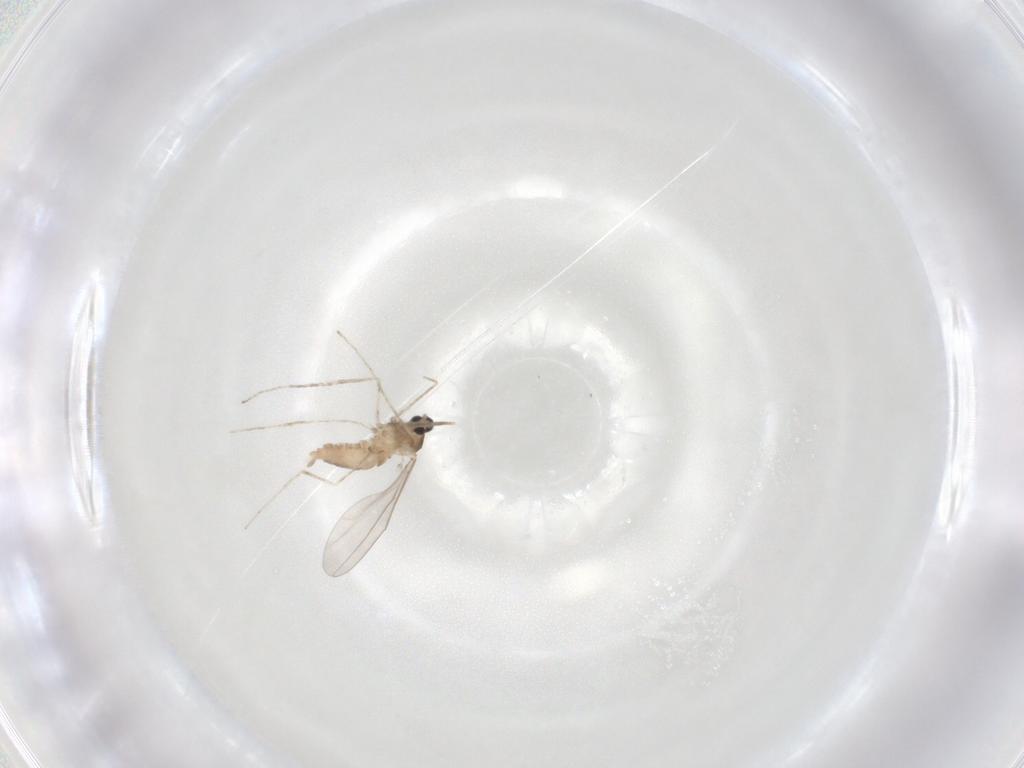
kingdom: Animalia
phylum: Arthropoda
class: Insecta
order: Diptera
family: Cecidomyiidae
